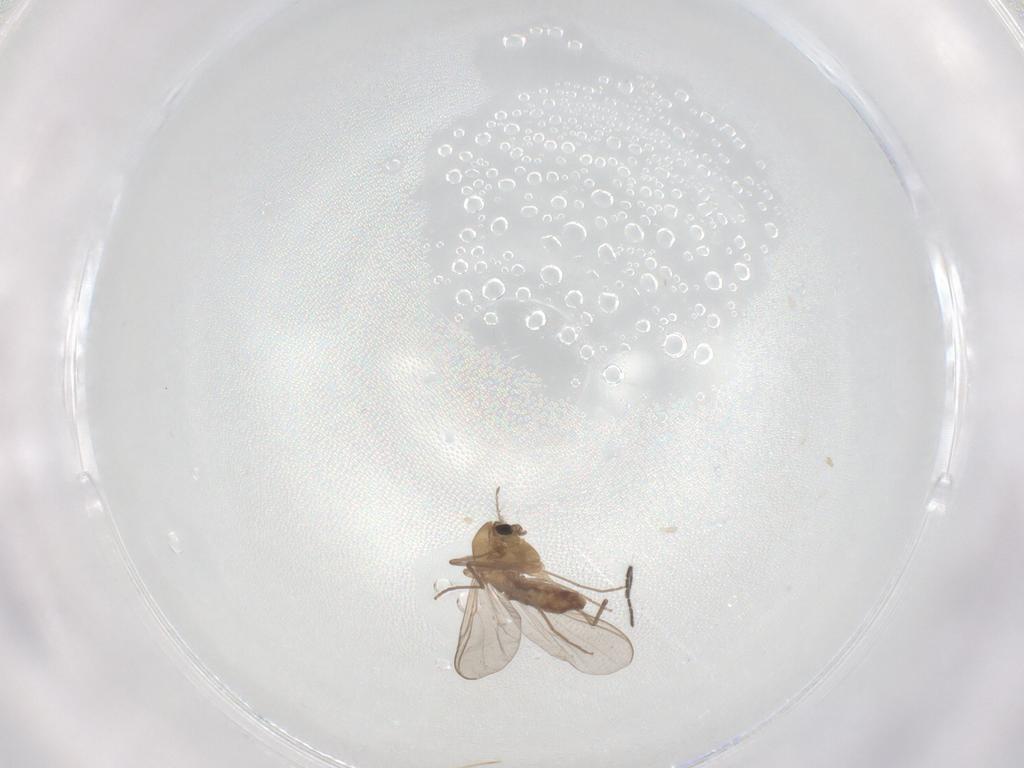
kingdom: Animalia
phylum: Arthropoda
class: Insecta
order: Diptera
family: Chironomidae
